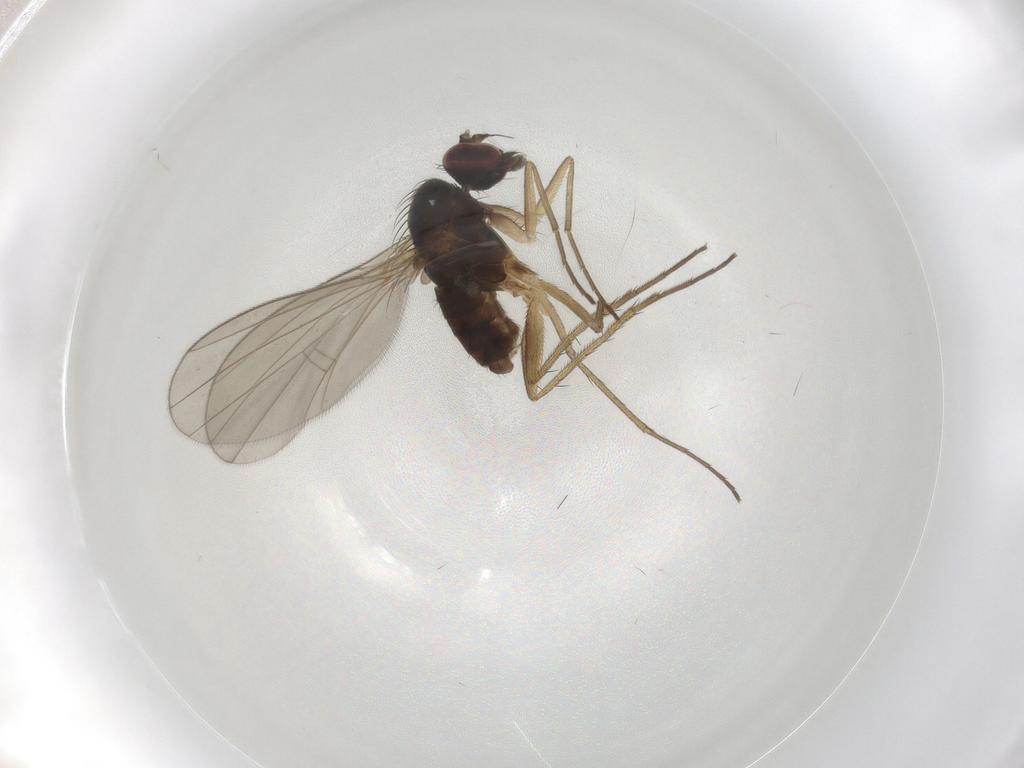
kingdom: Animalia
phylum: Arthropoda
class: Insecta
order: Diptera
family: Dolichopodidae
